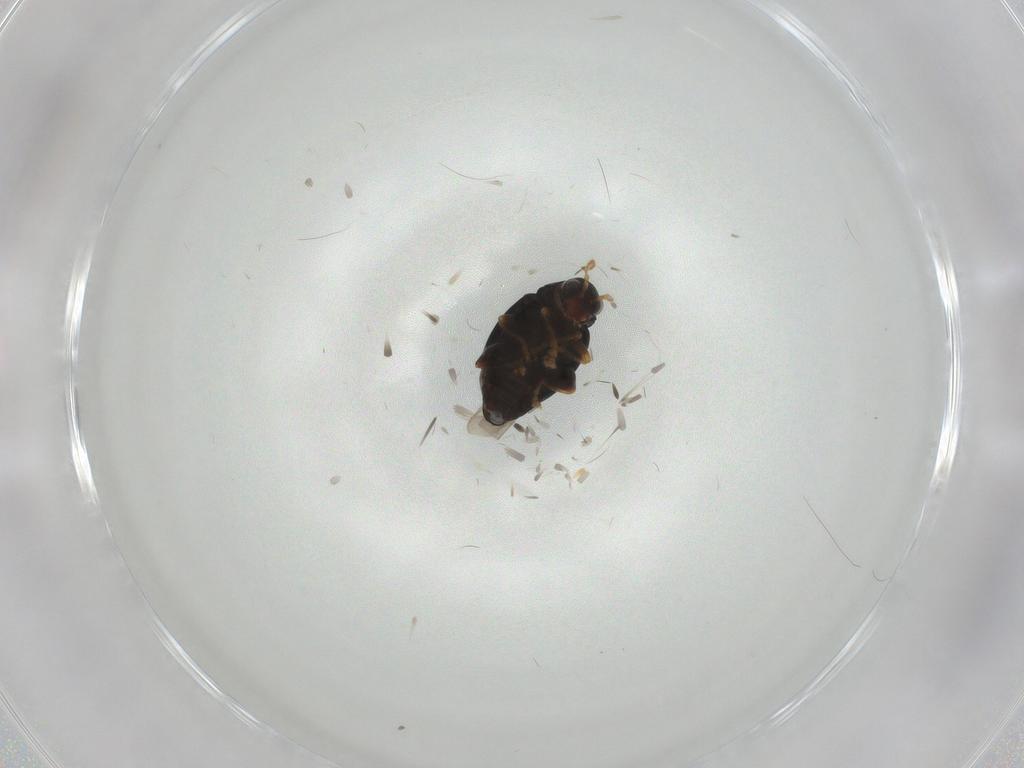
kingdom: Animalia
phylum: Arthropoda
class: Insecta
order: Coleoptera
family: Chrysomelidae
